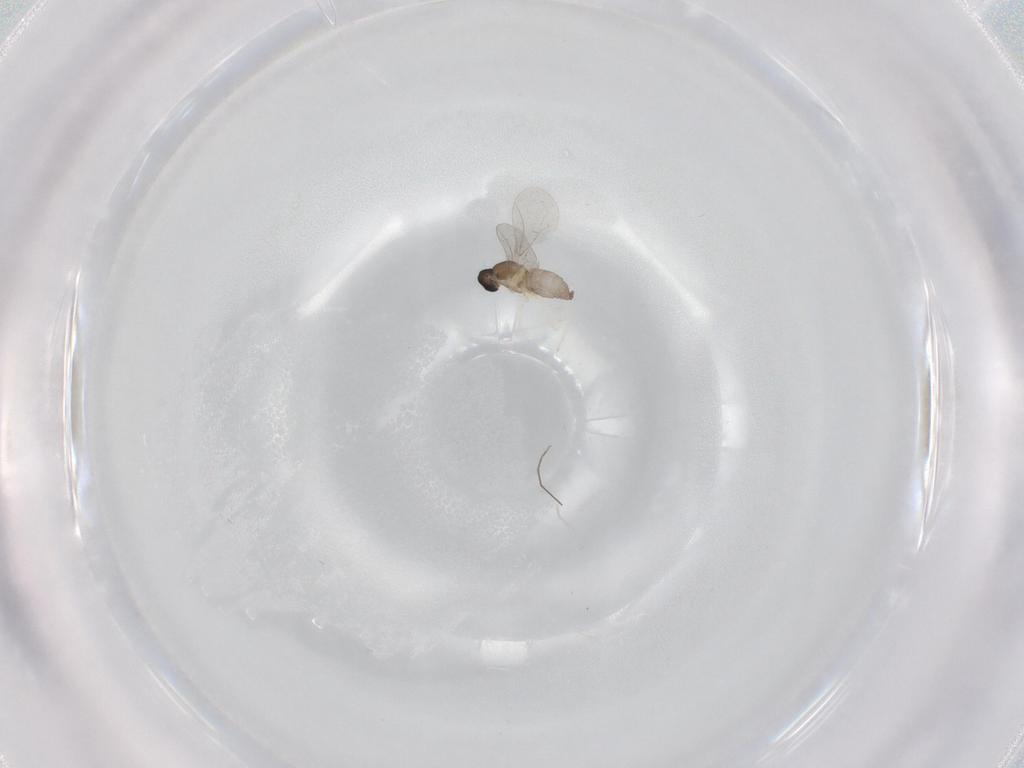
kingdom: Animalia
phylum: Arthropoda
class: Insecta
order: Diptera
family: Cecidomyiidae
